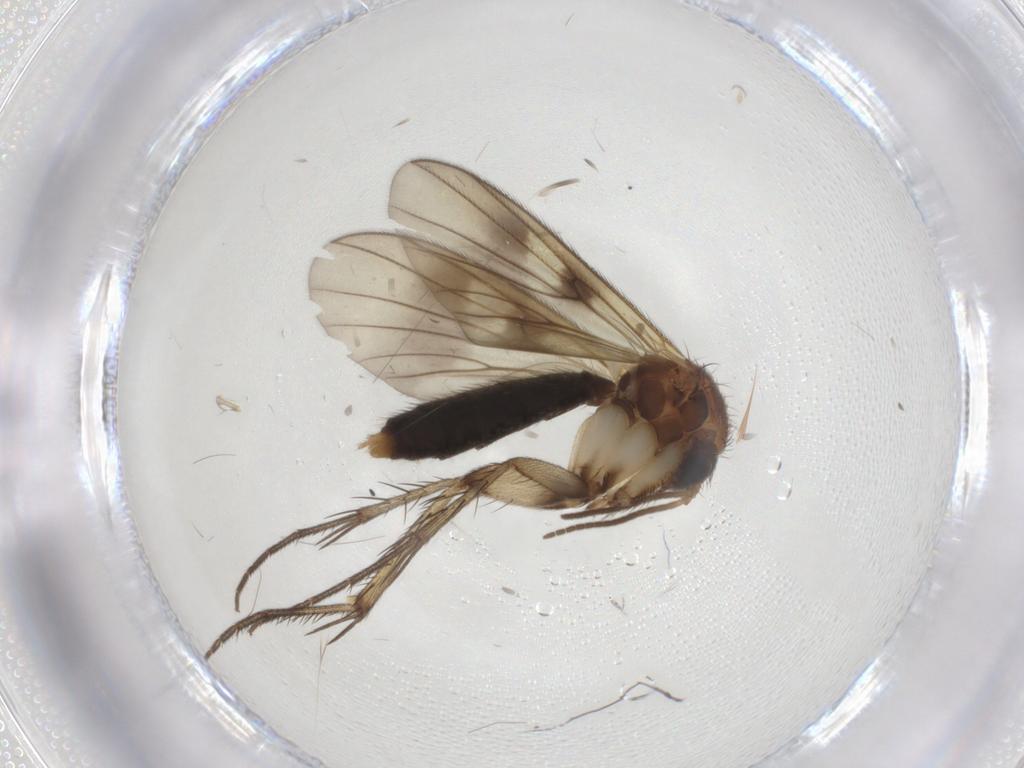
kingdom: Animalia
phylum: Arthropoda
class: Insecta
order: Diptera
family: Mycetophilidae
